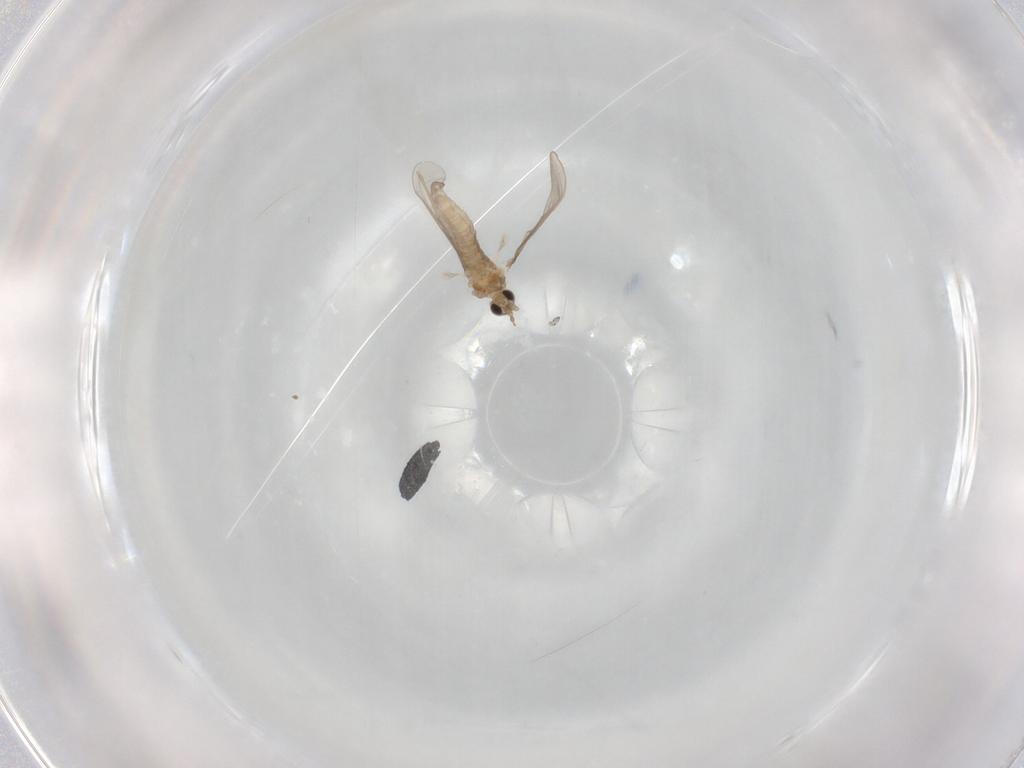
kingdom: Animalia
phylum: Arthropoda
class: Insecta
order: Diptera
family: Cecidomyiidae
